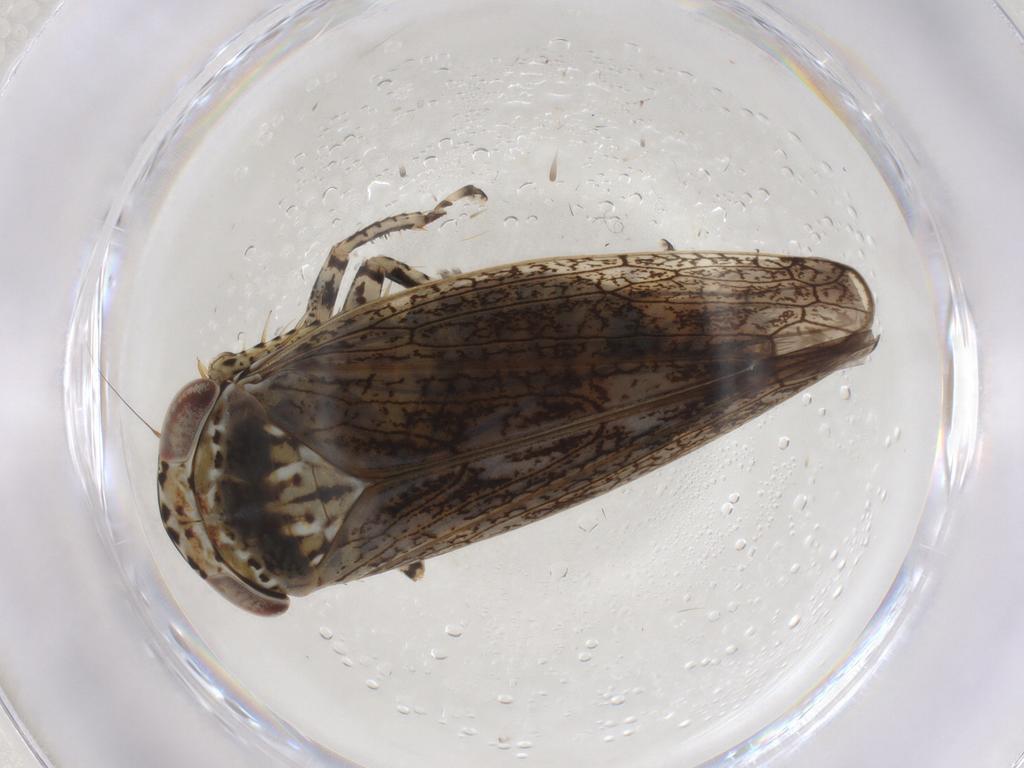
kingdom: Animalia
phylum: Arthropoda
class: Insecta
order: Hemiptera
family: Cicadellidae
